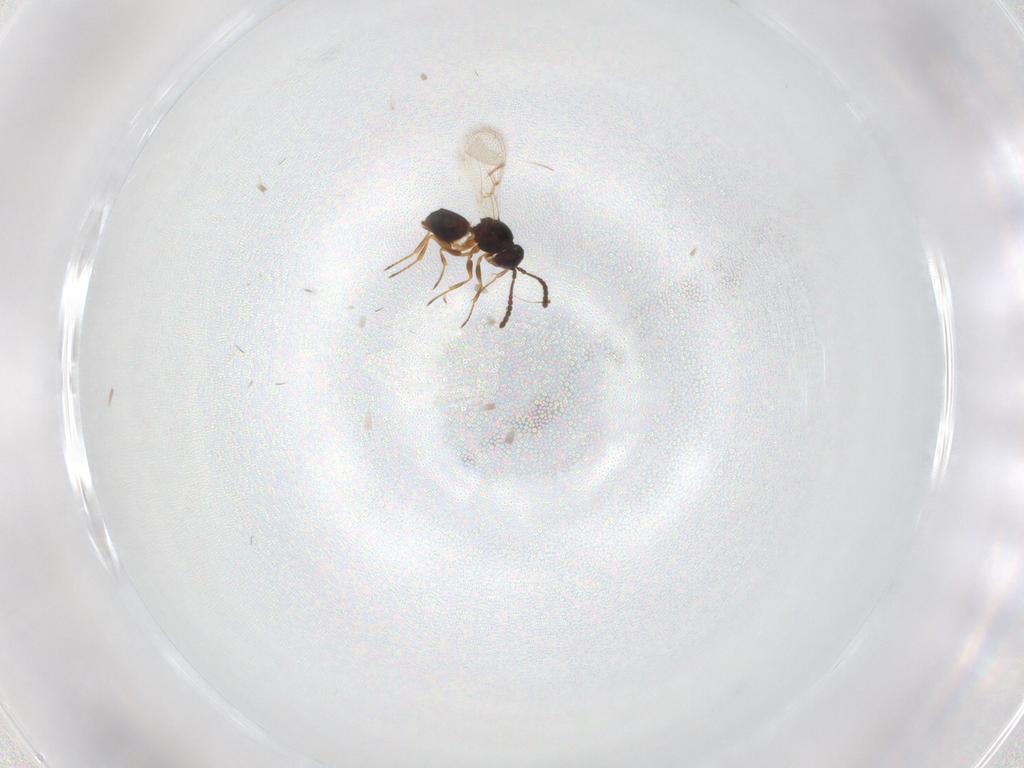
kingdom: Animalia
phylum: Arthropoda
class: Insecta
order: Hymenoptera
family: Figitidae
